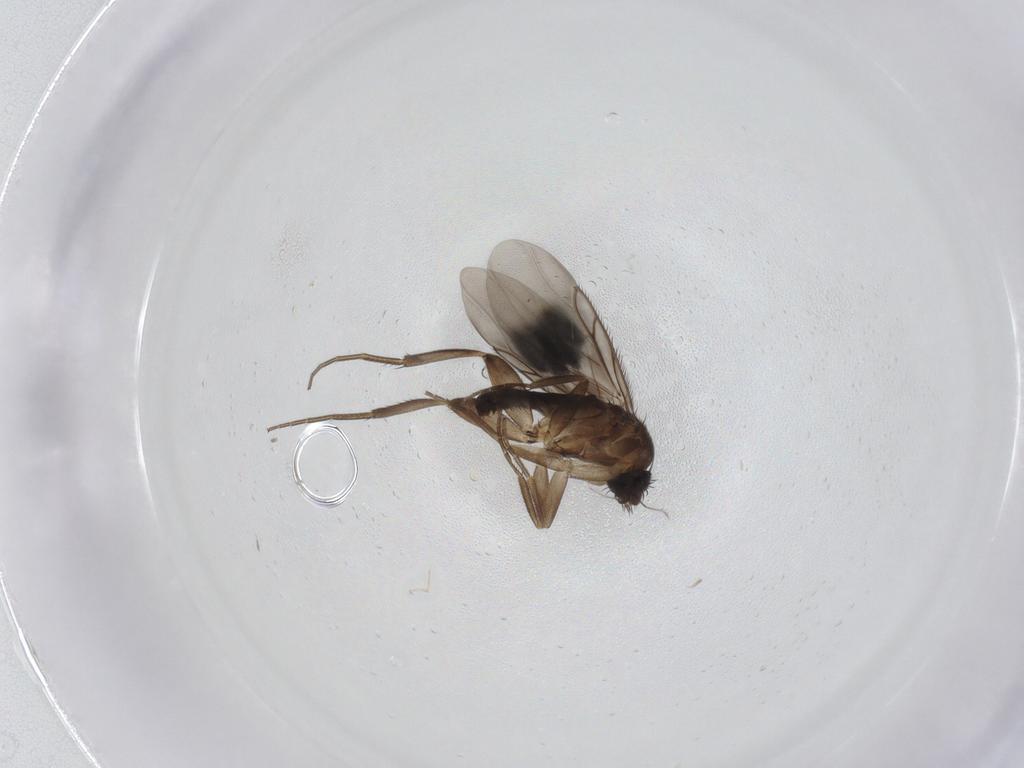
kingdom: Animalia
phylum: Arthropoda
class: Insecta
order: Diptera
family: Phoridae
